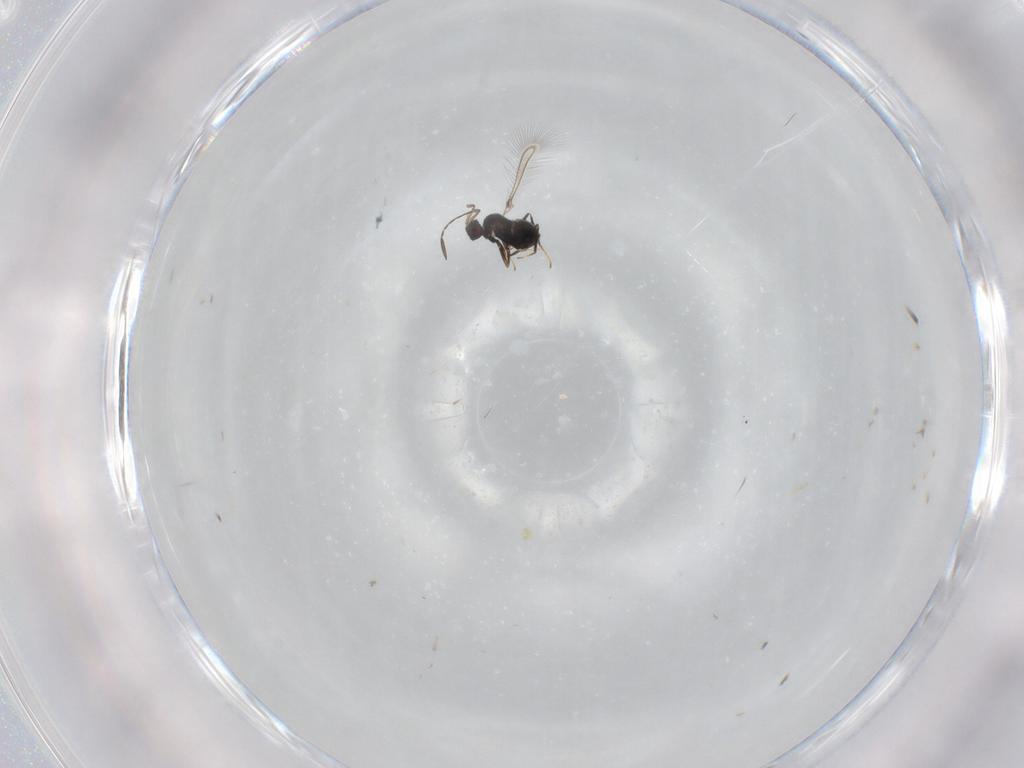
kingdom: Animalia
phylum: Arthropoda
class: Insecta
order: Hymenoptera
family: Mymaridae
